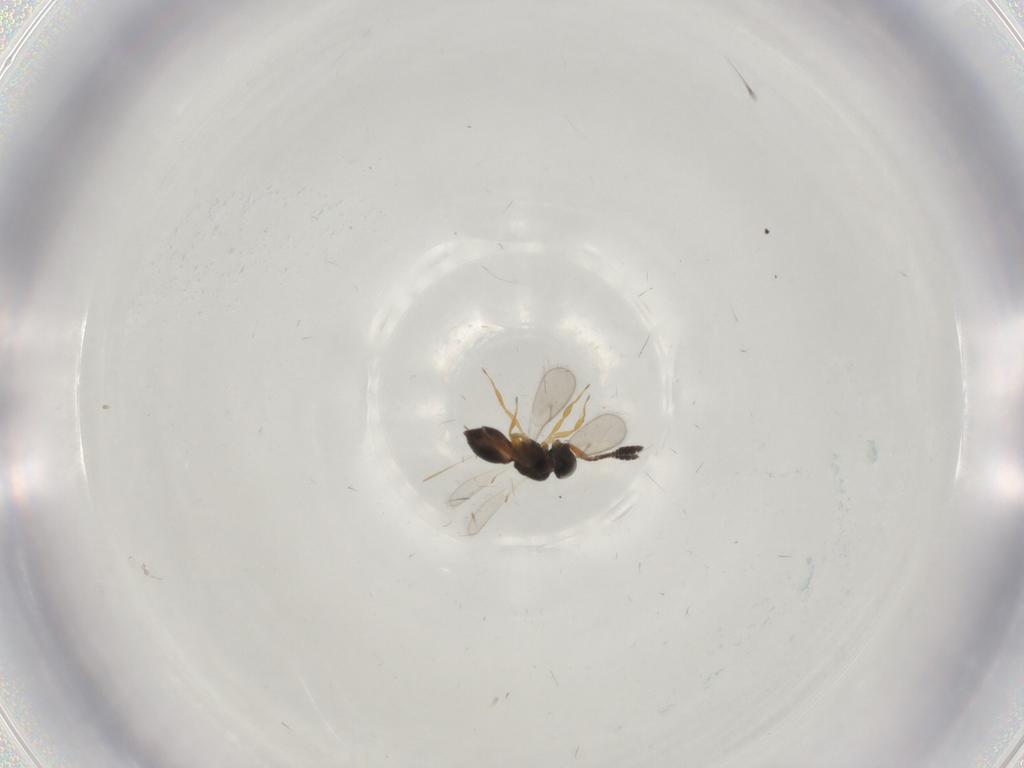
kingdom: Animalia
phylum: Arthropoda
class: Insecta
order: Hymenoptera
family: Scelionidae
